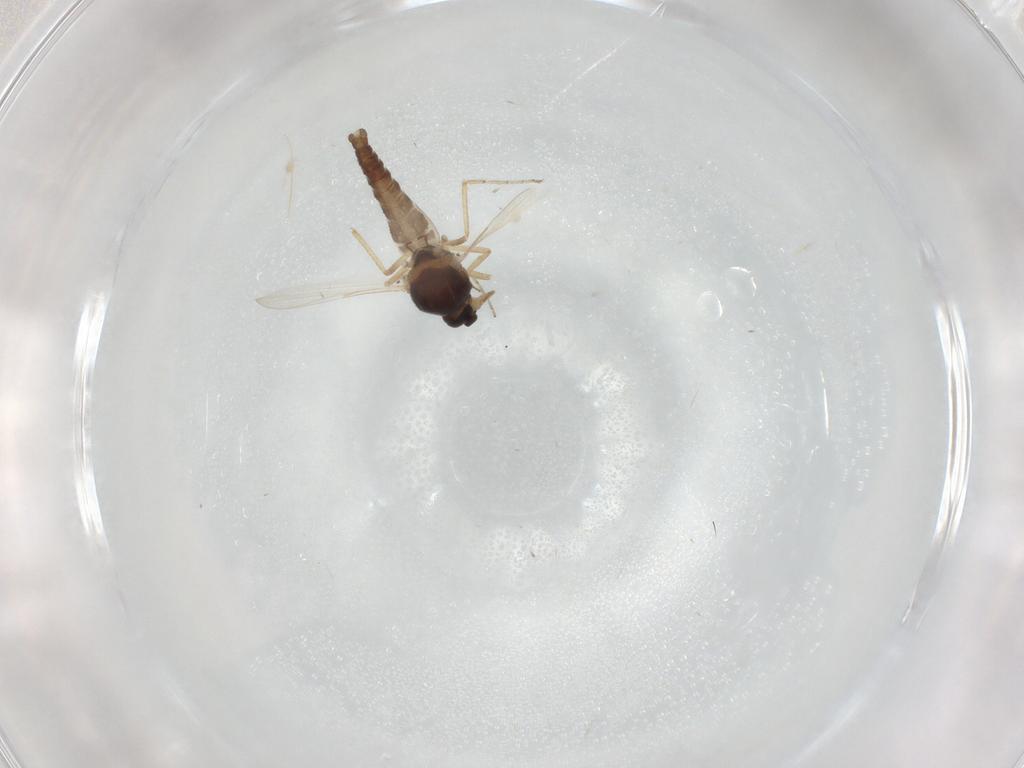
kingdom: Animalia
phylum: Arthropoda
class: Insecta
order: Diptera
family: Ceratopogonidae
